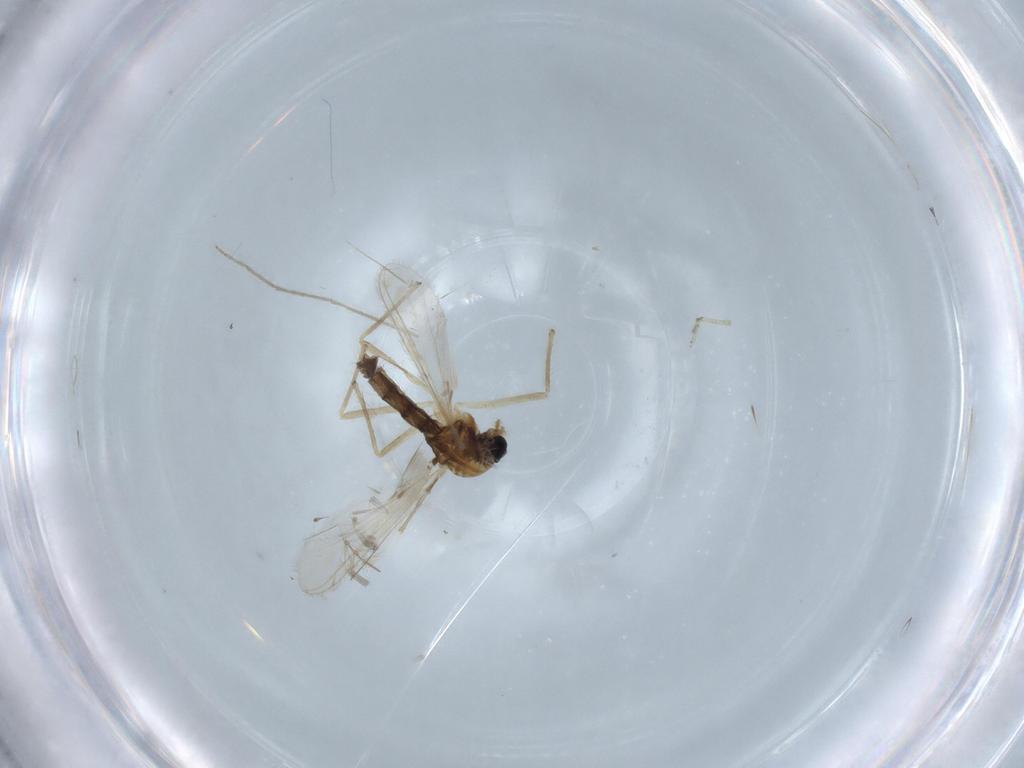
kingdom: Animalia
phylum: Arthropoda
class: Insecta
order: Diptera
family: Chironomidae
